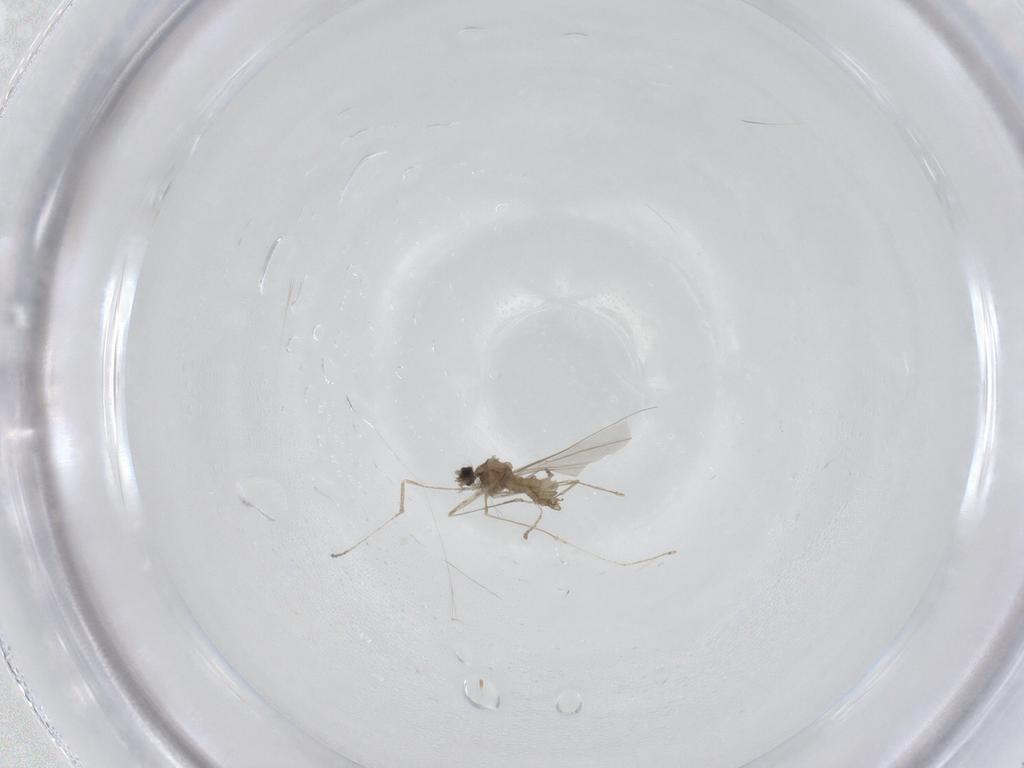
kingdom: Animalia
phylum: Arthropoda
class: Insecta
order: Diptera
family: Cecidomyiidae
